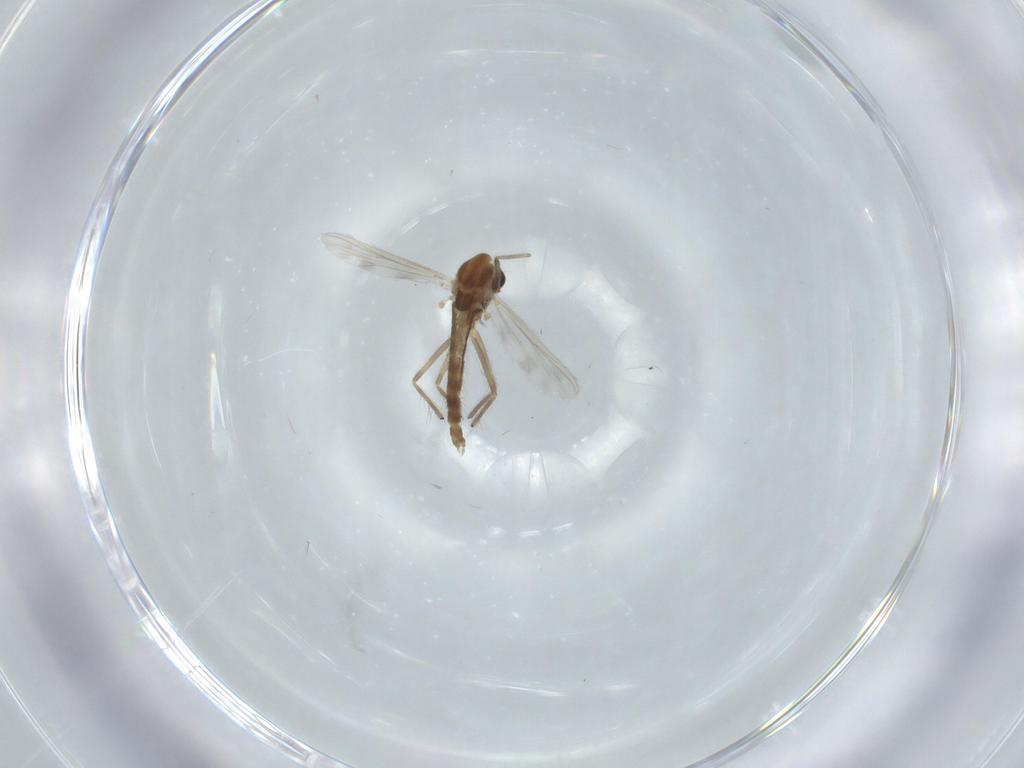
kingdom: Animalia
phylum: Arthropoda
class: Insecta
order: Diptera
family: Chironomidae
